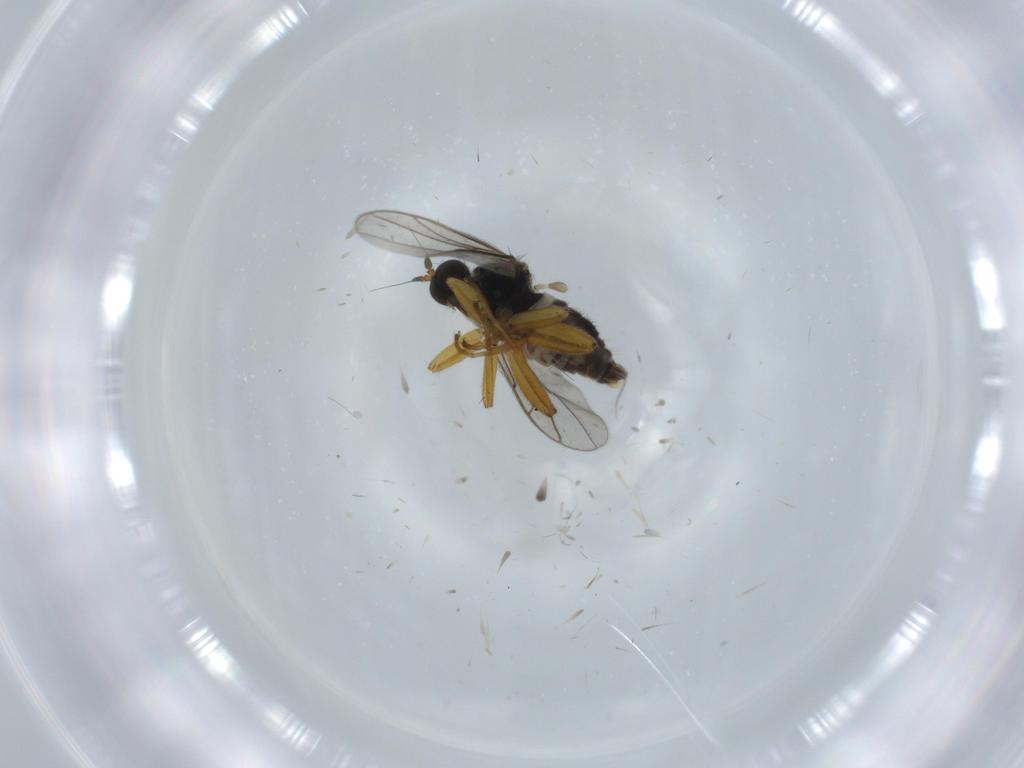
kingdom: Animalia
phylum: Arthropoda
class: Insecta
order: Diptera
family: Hybotidae
